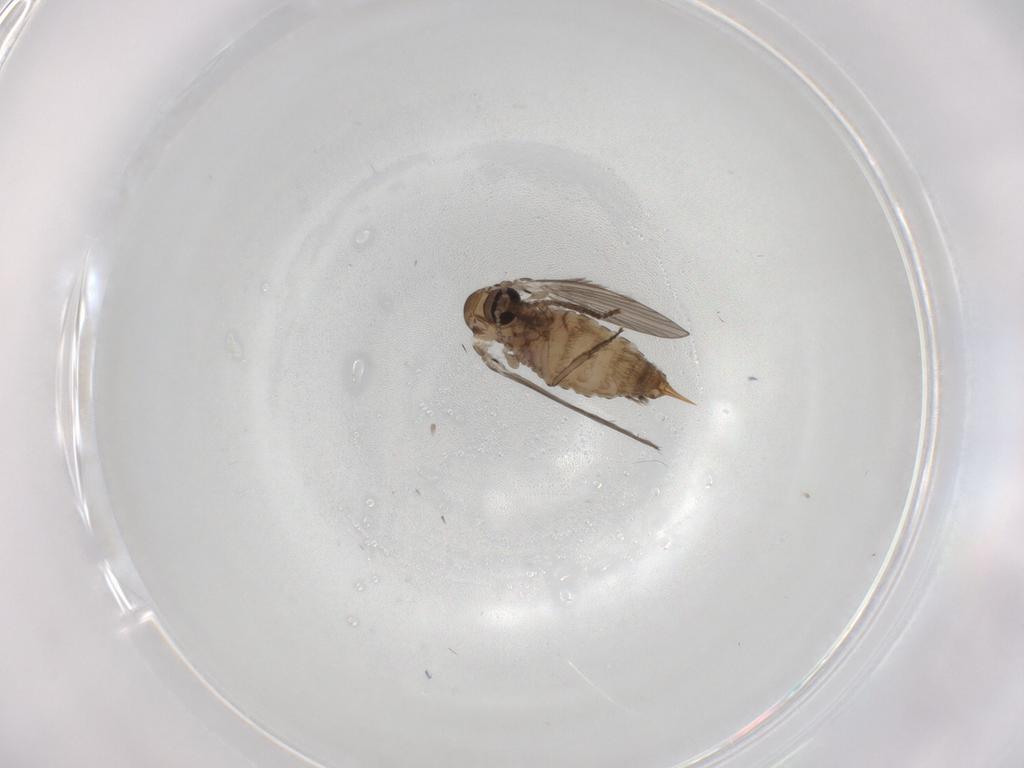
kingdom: Animalia
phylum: Arthropoda
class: Insecta
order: Diptera
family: Psychodidae
